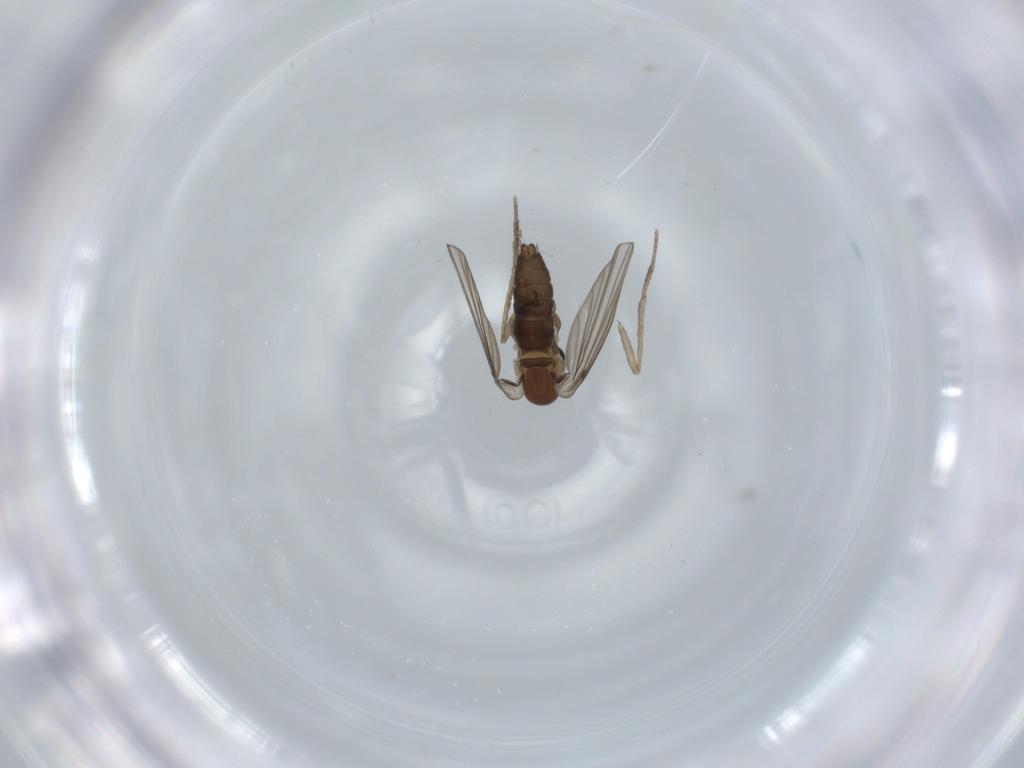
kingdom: Animalia
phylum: Arthropoda
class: Insecta
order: Diptera
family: Psychodidae
